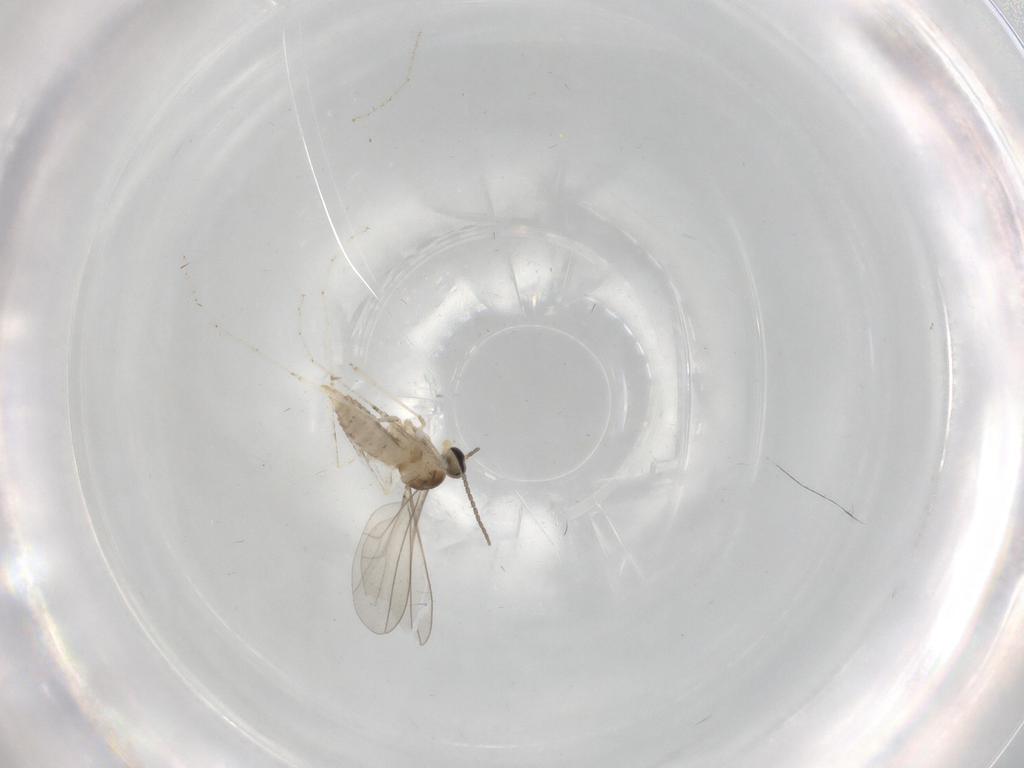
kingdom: Animalia
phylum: Arthropoda
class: Insecta
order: Diptera
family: Cecidomyiidae
